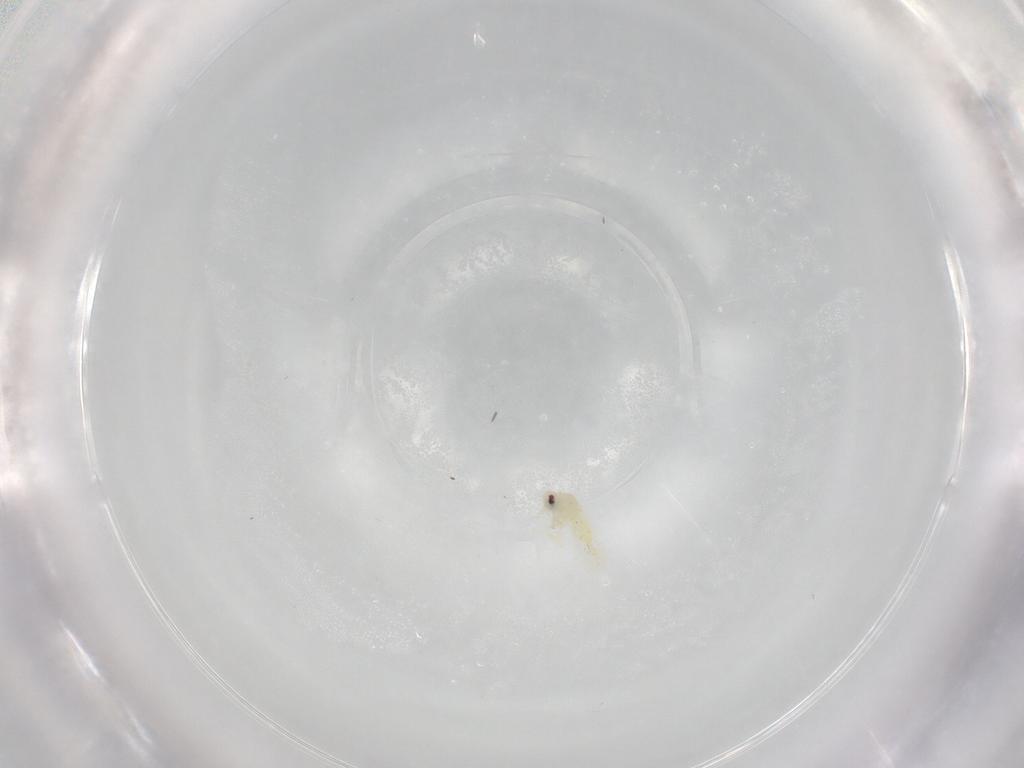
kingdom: Animalia
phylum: Arthropoda
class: Insecta
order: Hemiptera
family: Aleyrodidae
